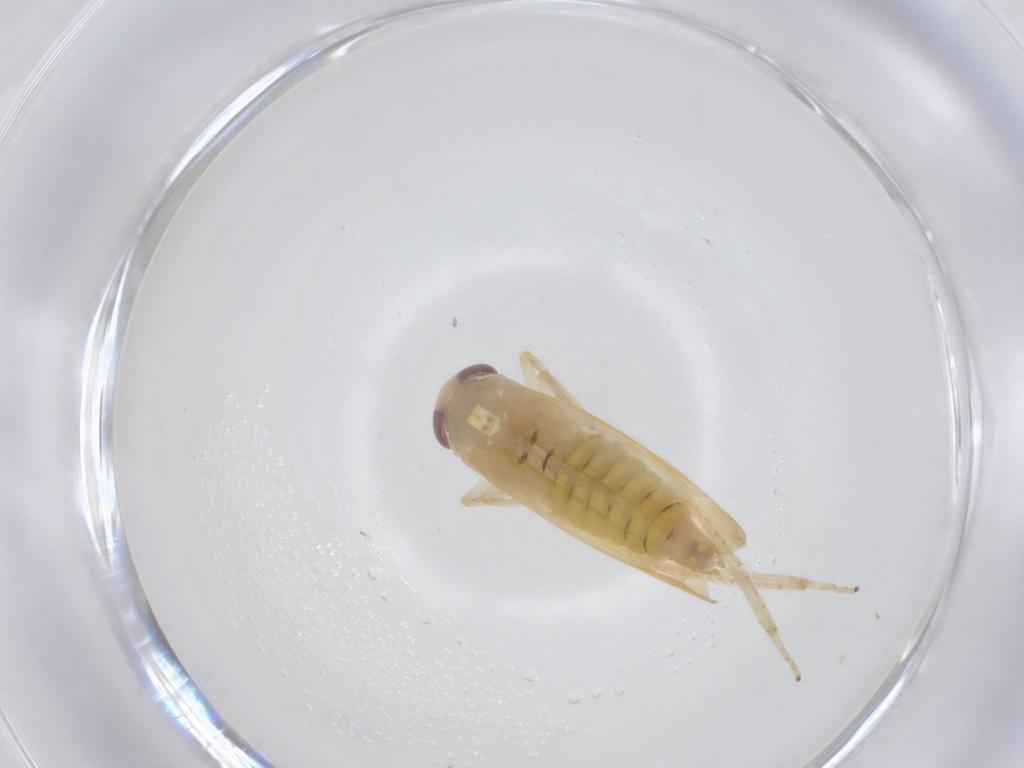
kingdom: Animalia
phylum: Arthropoda
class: Insecta
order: Hemiptera
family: Cicadellidae
